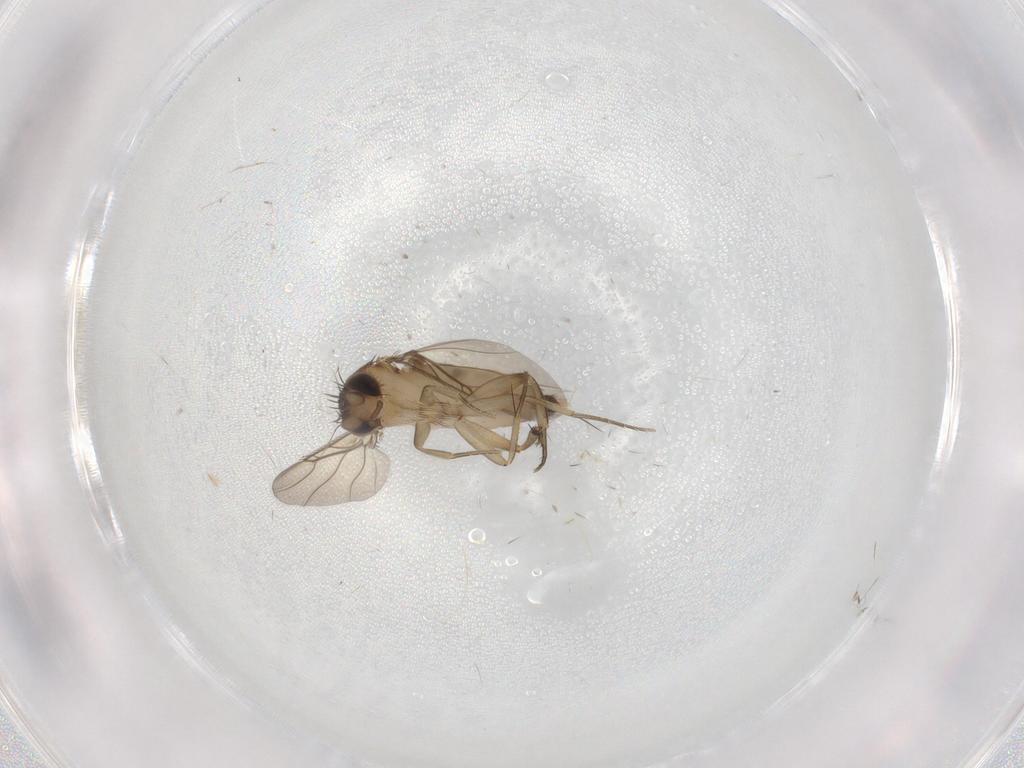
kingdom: Animalia
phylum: Arthropoda
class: Insecta
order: Diptera
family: Phoridae
